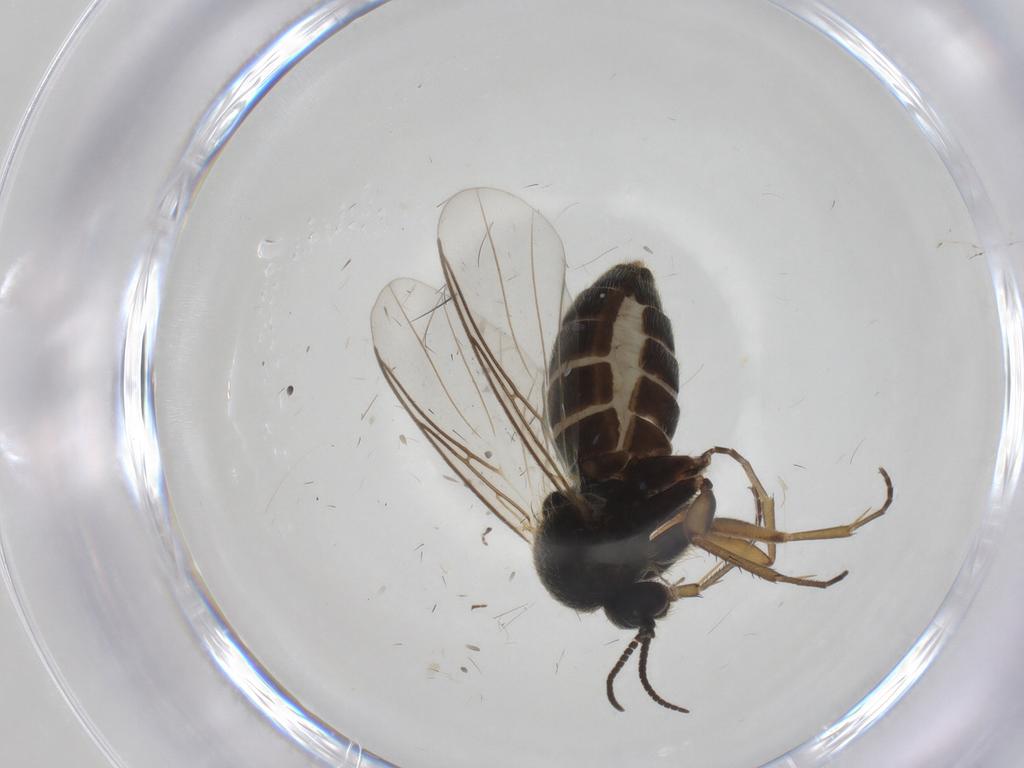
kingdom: Animalia
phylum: Arthropoda
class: Insecta
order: Diptera
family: Mycetophilidae
